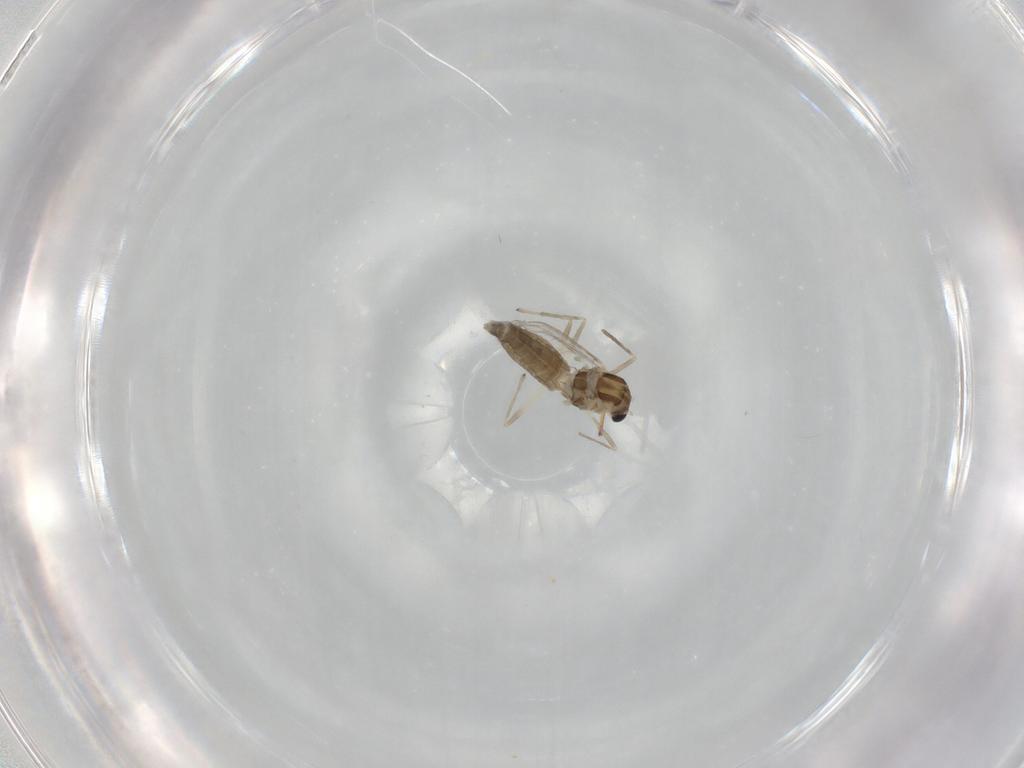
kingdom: Animalia
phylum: Arthropoda
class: Insecta
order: Diptera
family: Chironomidae
